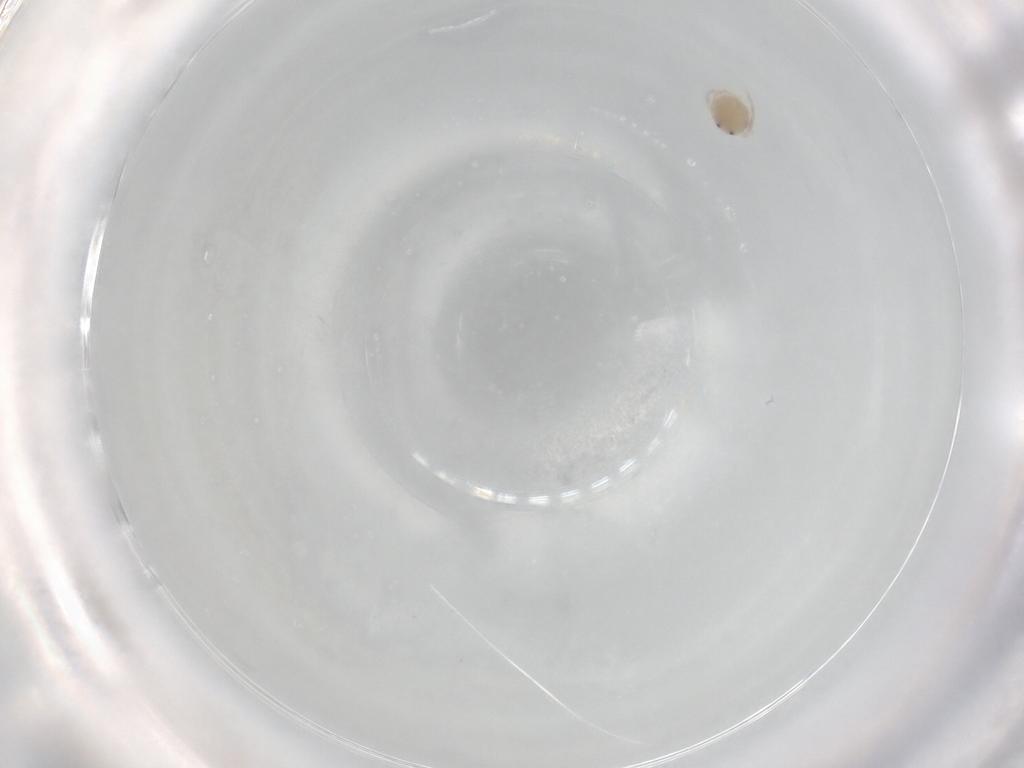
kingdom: Animalia
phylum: Arthropoda
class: Arachnida
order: Trombidiformes
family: Lebertiidae
